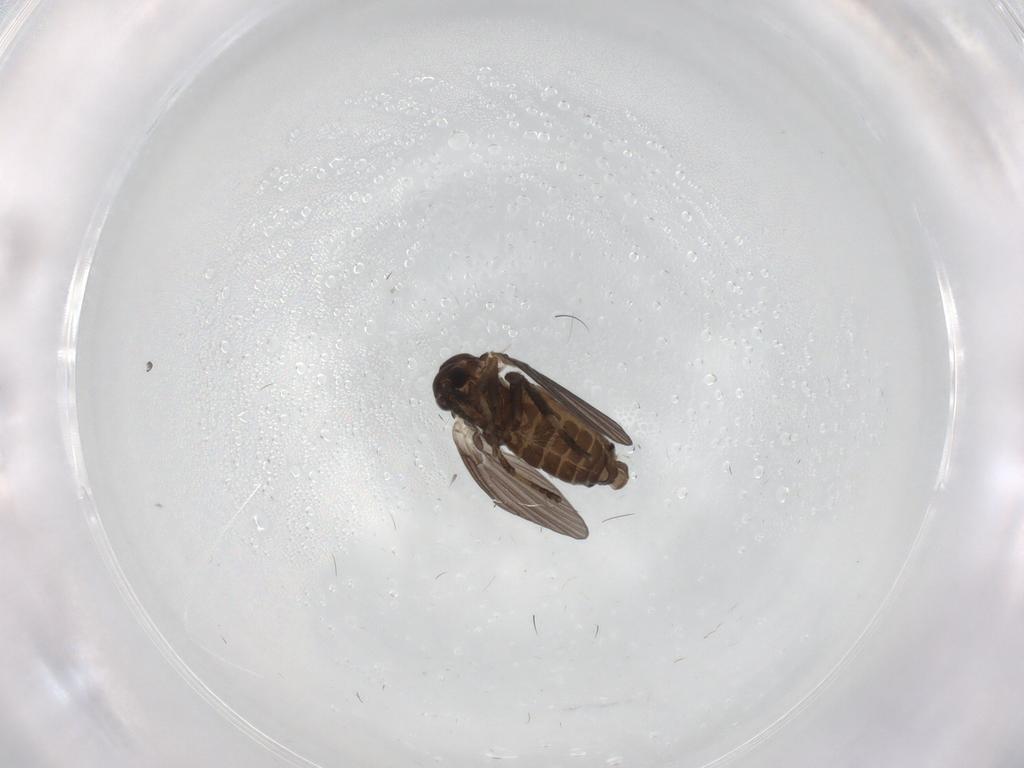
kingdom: Animalia
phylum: Arthropoda
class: Insecta
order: Diptera
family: Psychodidae
